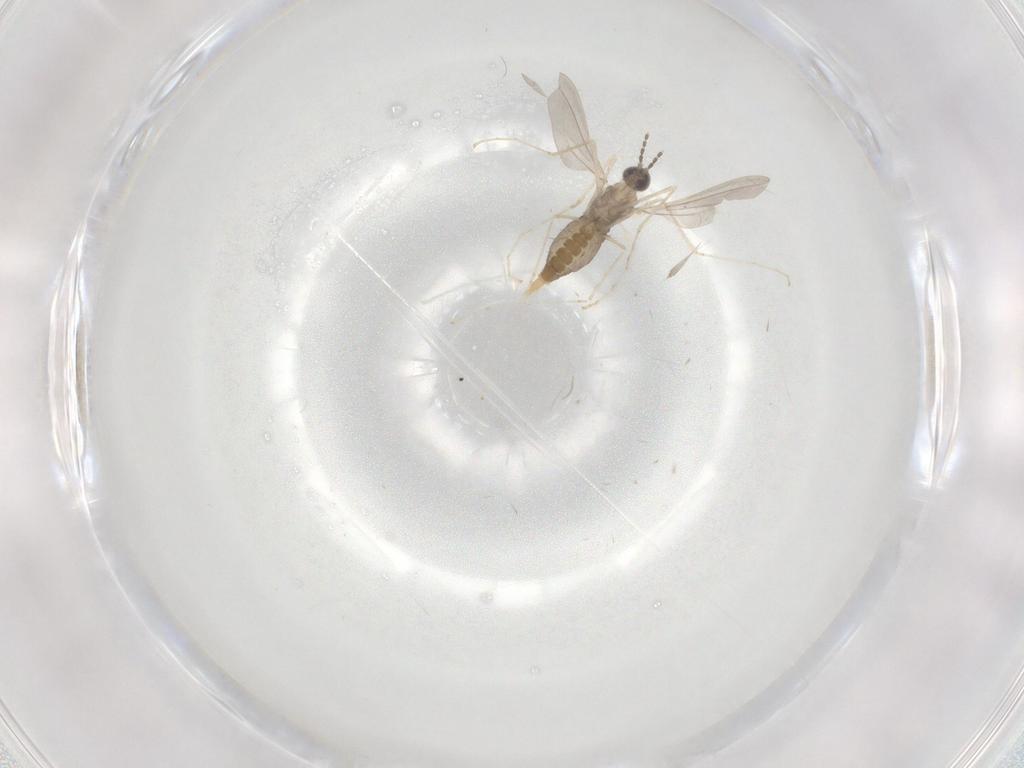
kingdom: Animalia
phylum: Arthropoda
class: Insecta
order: Diptera
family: Cecidomyiidae
